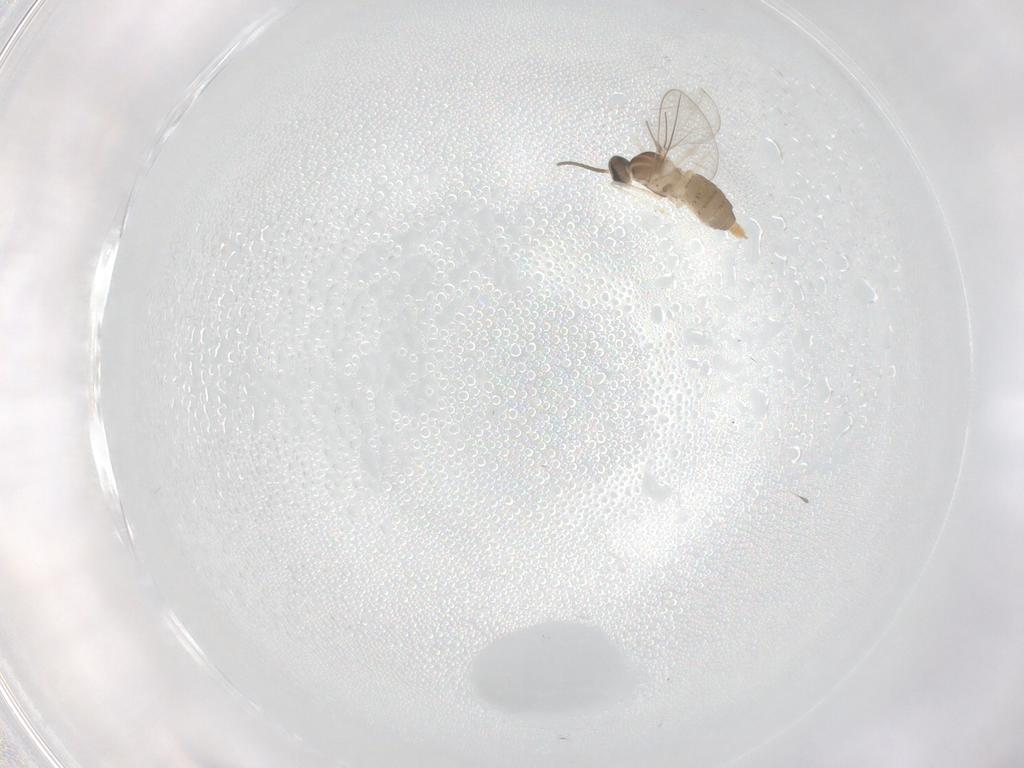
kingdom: Animalia
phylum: Arthropoda
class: Insecta
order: Diptera
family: Cecidomyiidae
